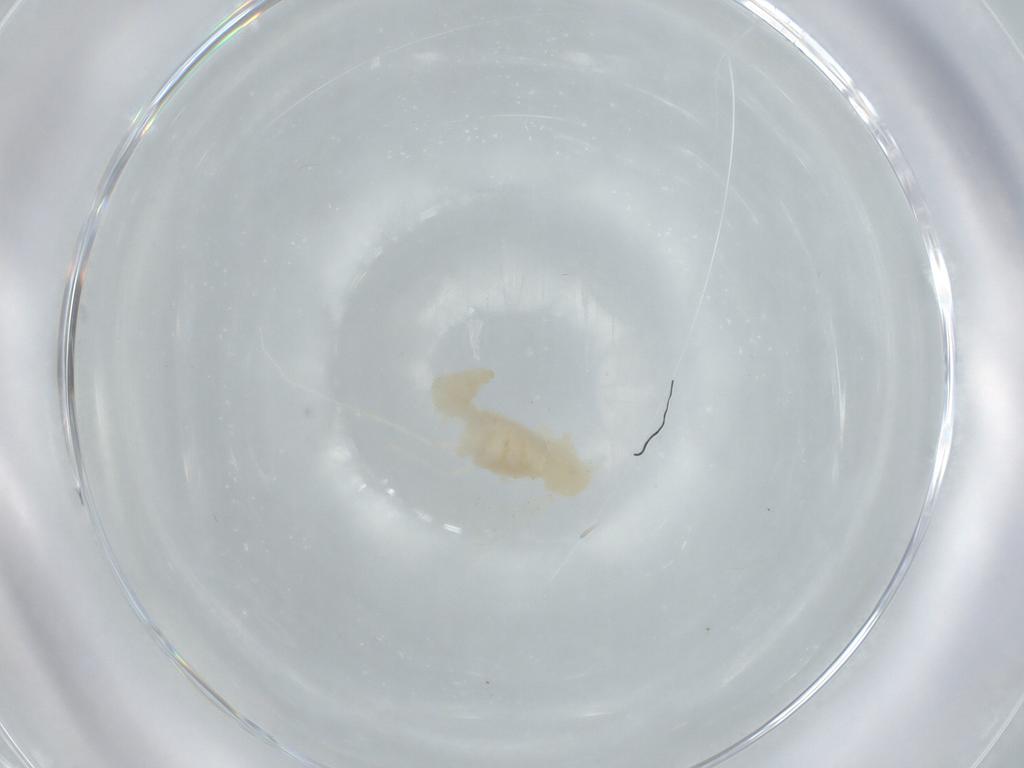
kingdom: Animalia
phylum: Arthropoda
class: Insecta
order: Diptera
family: Cecidomyiidae
